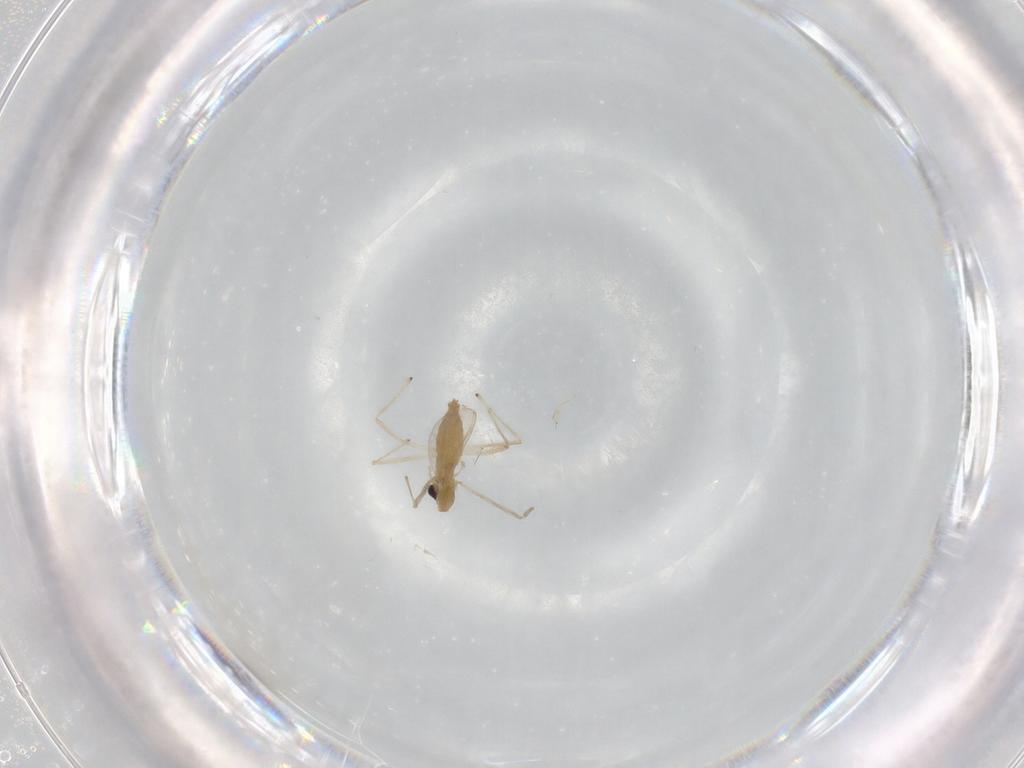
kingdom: Animalia
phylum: Arthropoda
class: Insecta
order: Diptera
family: Chironomidae
